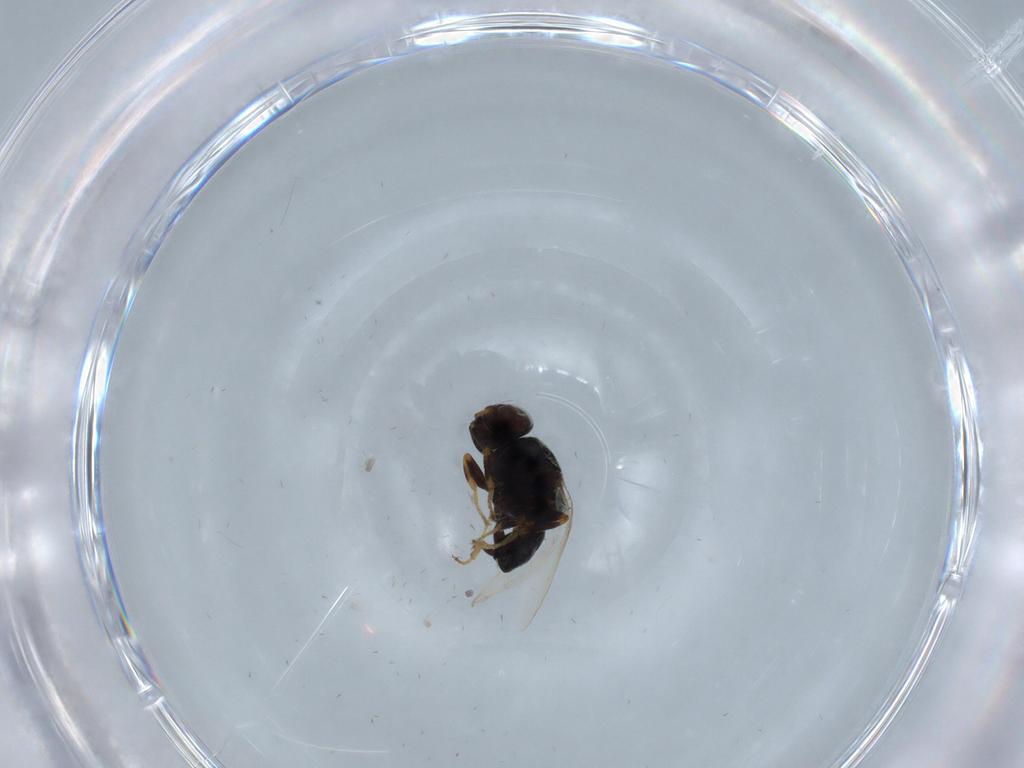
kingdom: Animalia
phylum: Arthropoda
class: Insecta
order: Diptera
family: Chloropidae
